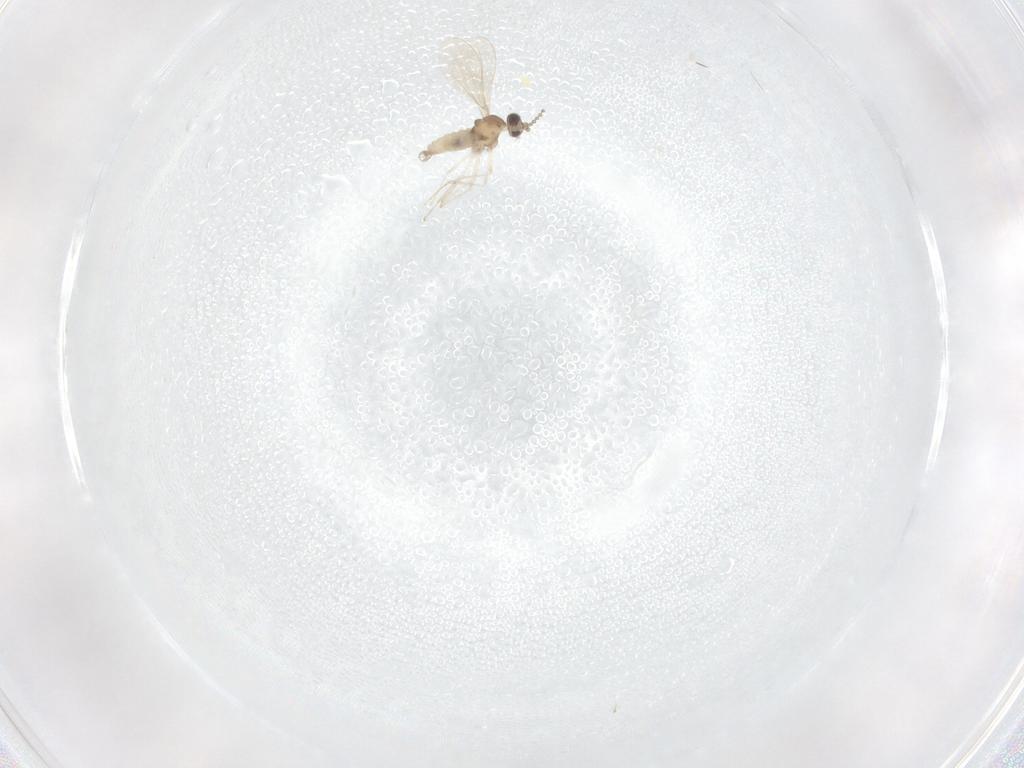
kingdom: Animalia
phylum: Arthropoda
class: Insecta
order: Diptera
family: Cecidomyiidae
